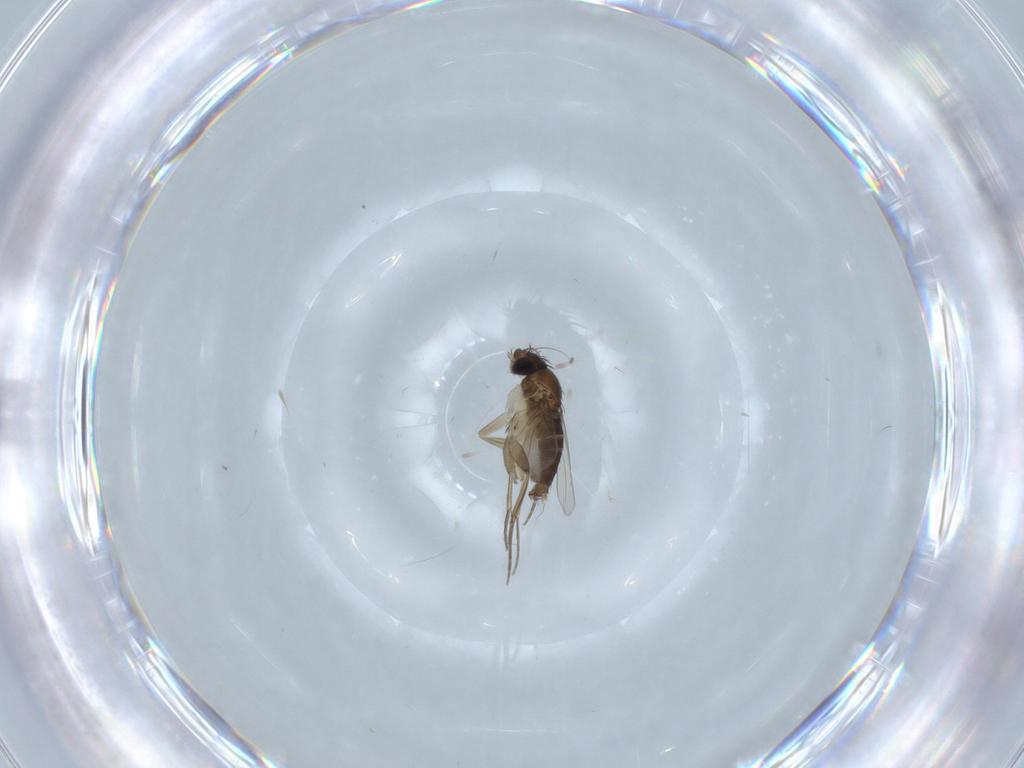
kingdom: Animalia
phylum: Arthropoda
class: Insecta
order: Diptera
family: Phoridae
